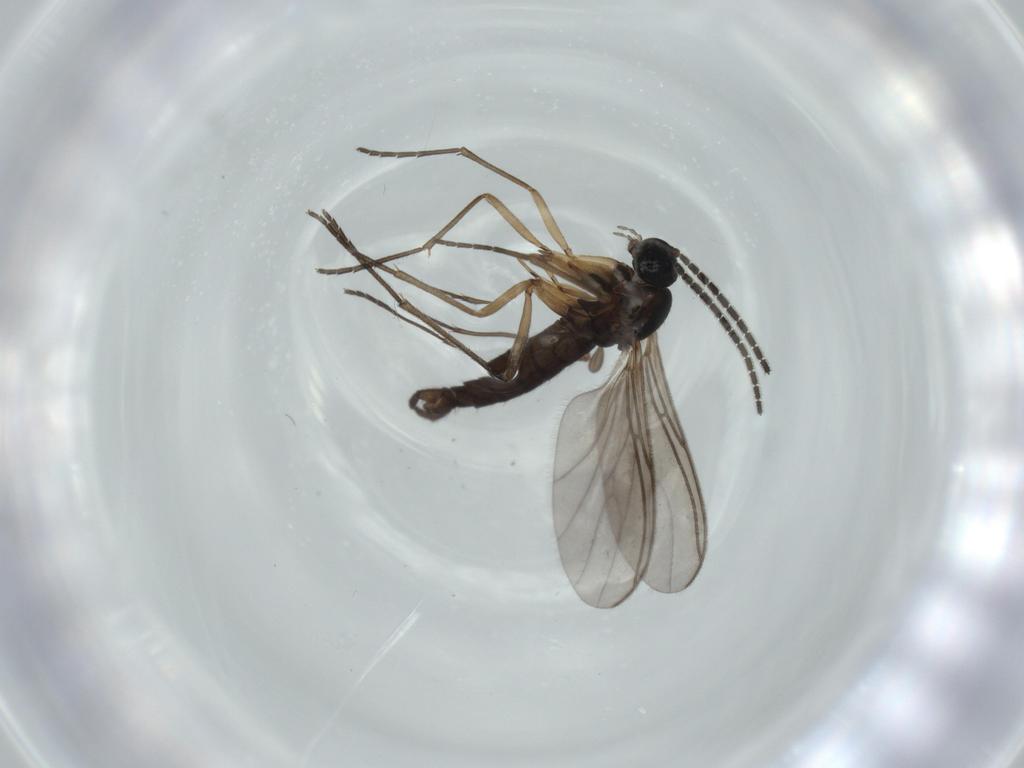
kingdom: Animalia
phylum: Arthropoda
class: Insecta
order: Diptera
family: Sciaridae
